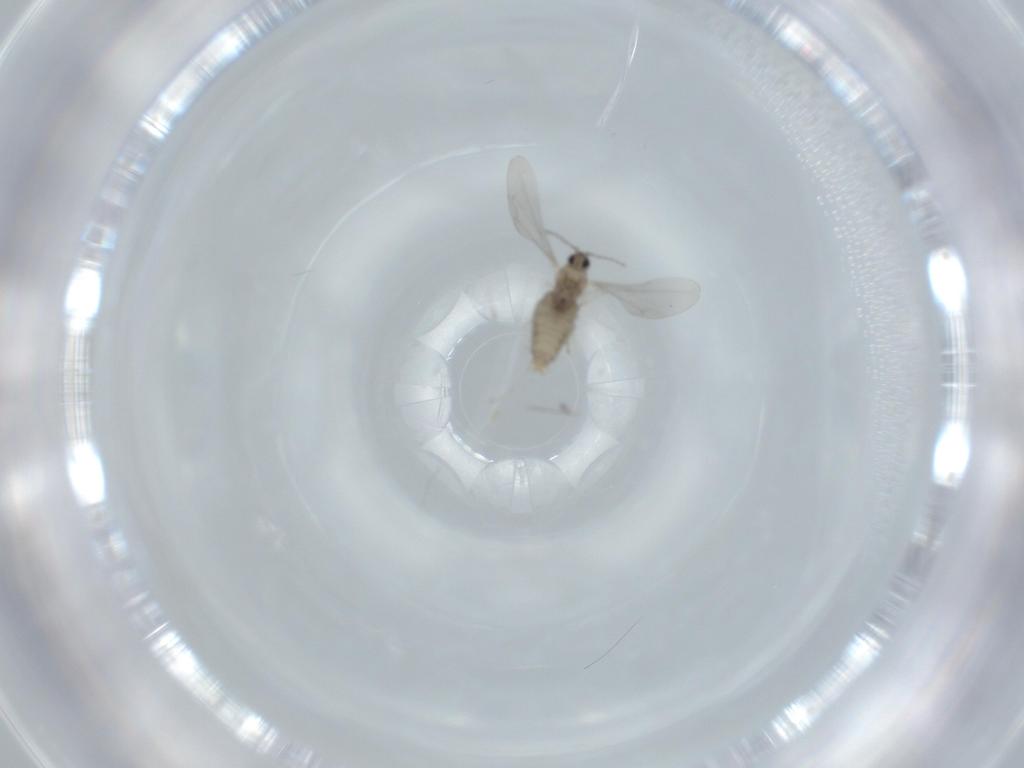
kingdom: Animalia
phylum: Arthropoda
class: Insecta
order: Diptera
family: Cecidomyiidae
